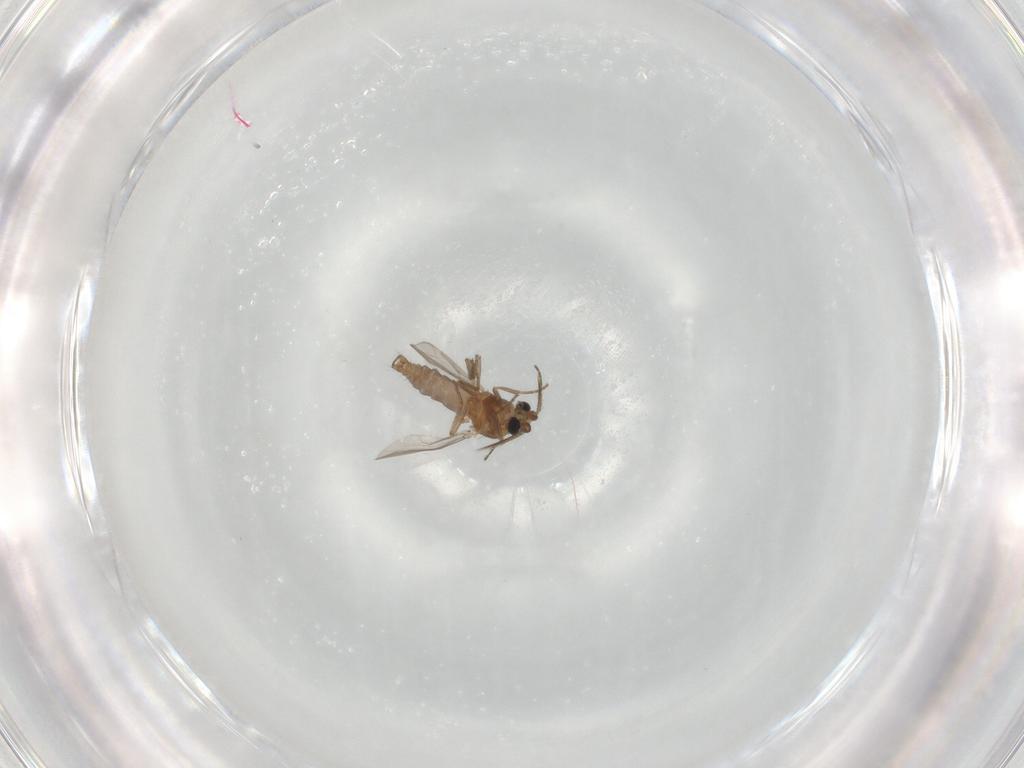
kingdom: Animalia
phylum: Arthropoda
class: Insecta
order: Diptera
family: Ceratopogonidae
